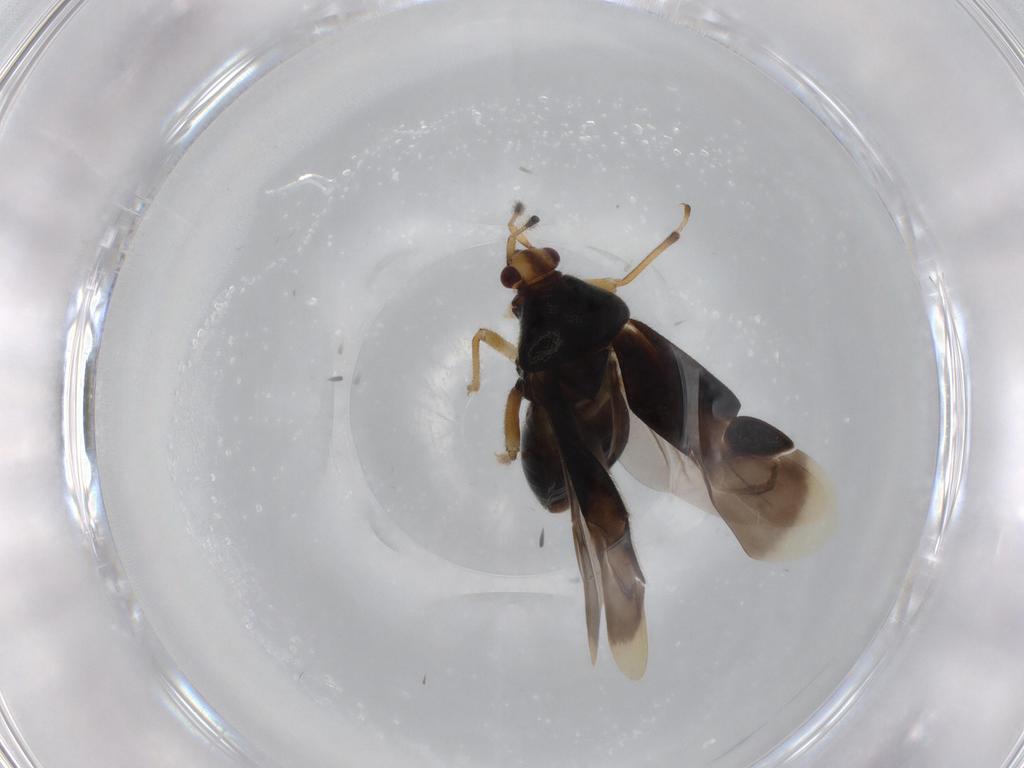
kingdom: Animalia
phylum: Arthropoda
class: Insecta
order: Hemiptera
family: Miridae
